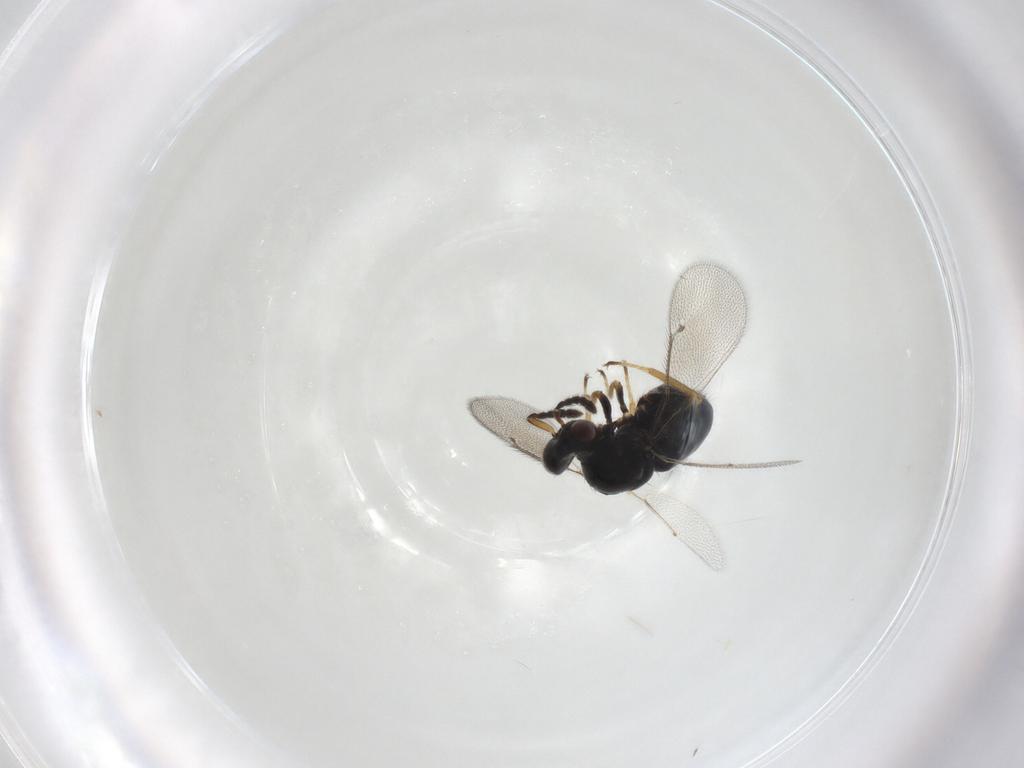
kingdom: Animalia
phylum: Arthropoda
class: Insecta
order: Hymenoptera
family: Eulophidae
